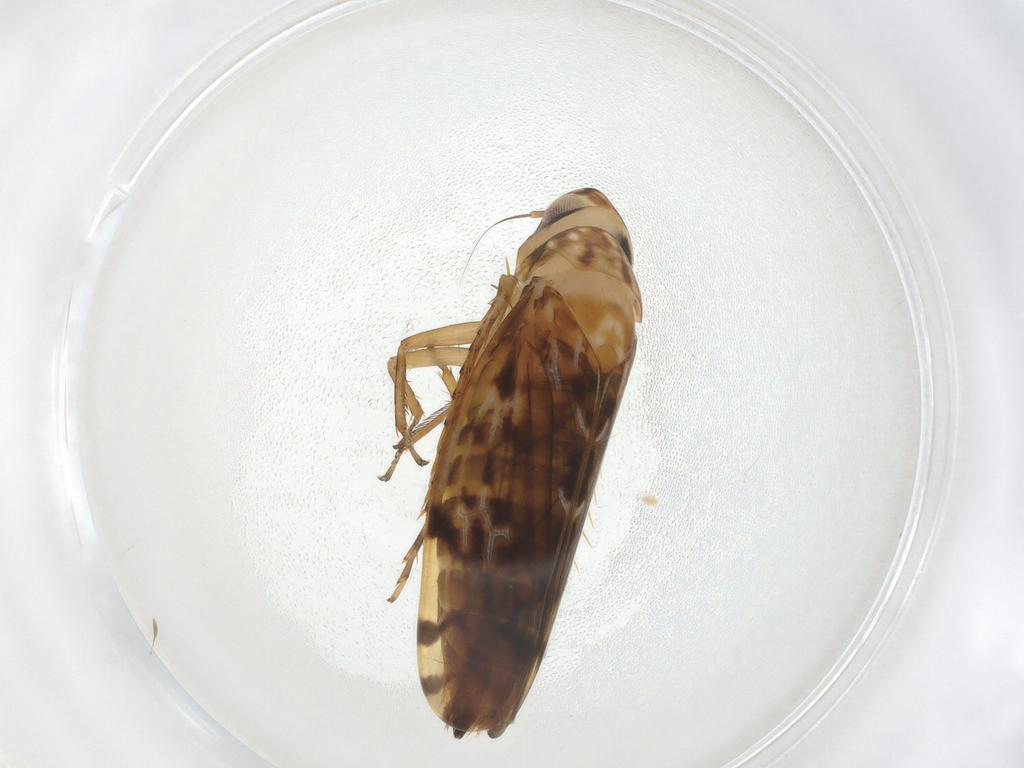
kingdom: Animalia
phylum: Arthropoda
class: Insecta
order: Hemiptera
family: Cicadellidae
